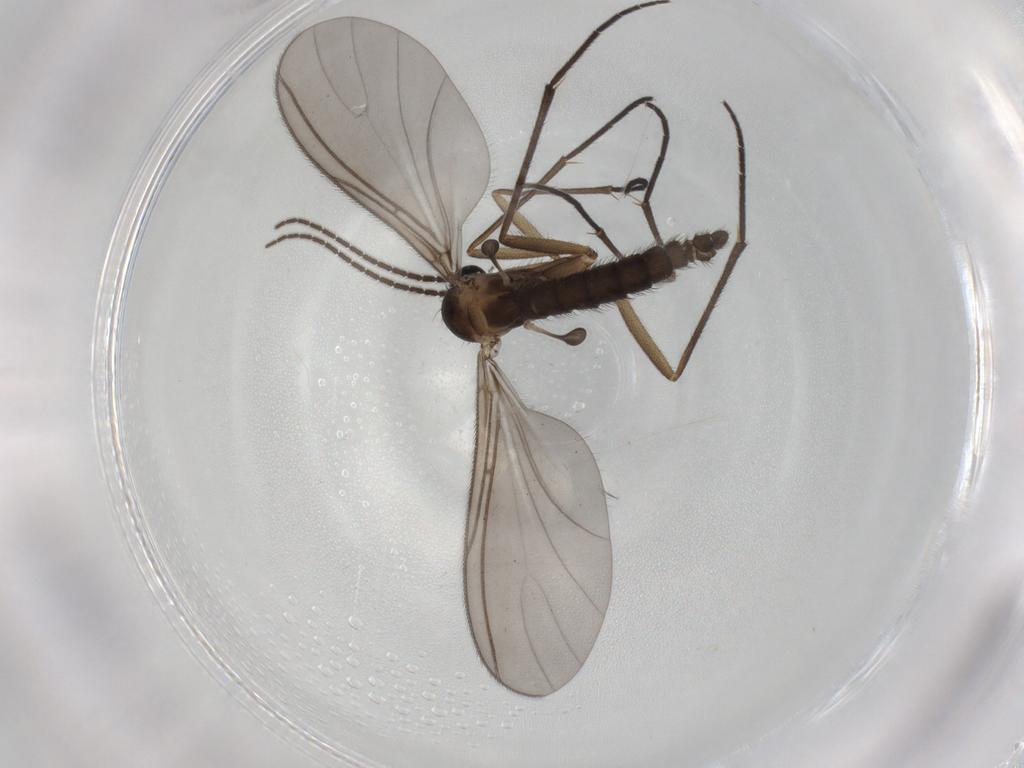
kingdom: Animalia
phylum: Arthropoda
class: Insecta
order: Diptera
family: Sciaridae
